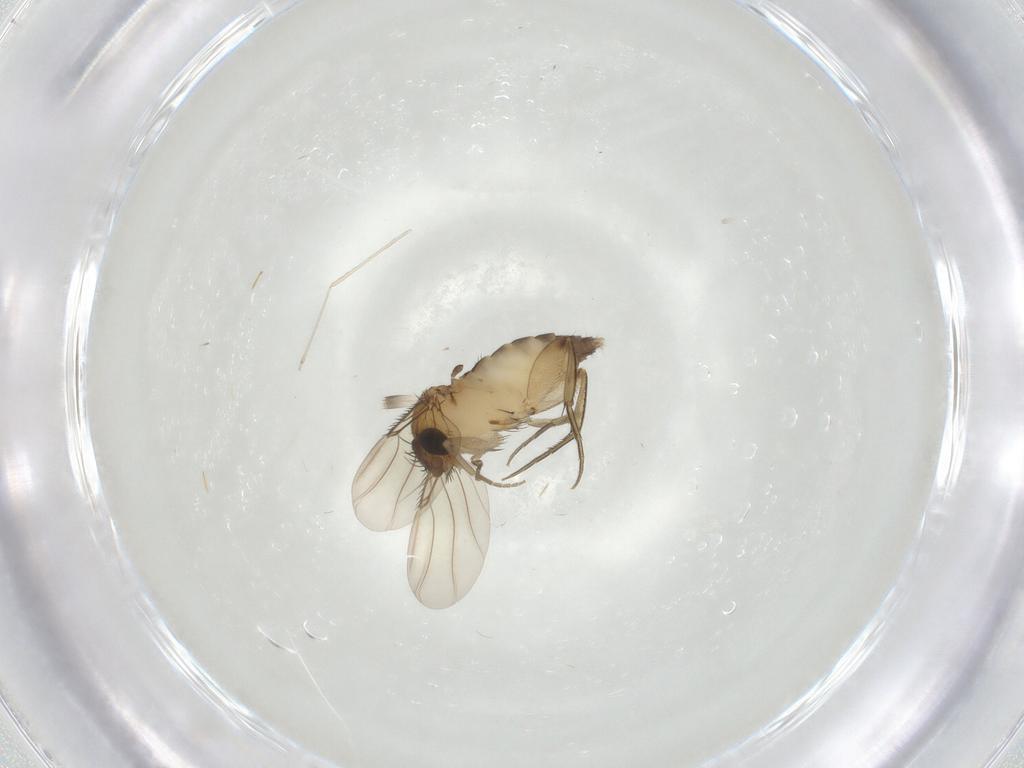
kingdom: Animalia
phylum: Arthropoda
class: Insecta
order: Diptera
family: Phoridae
